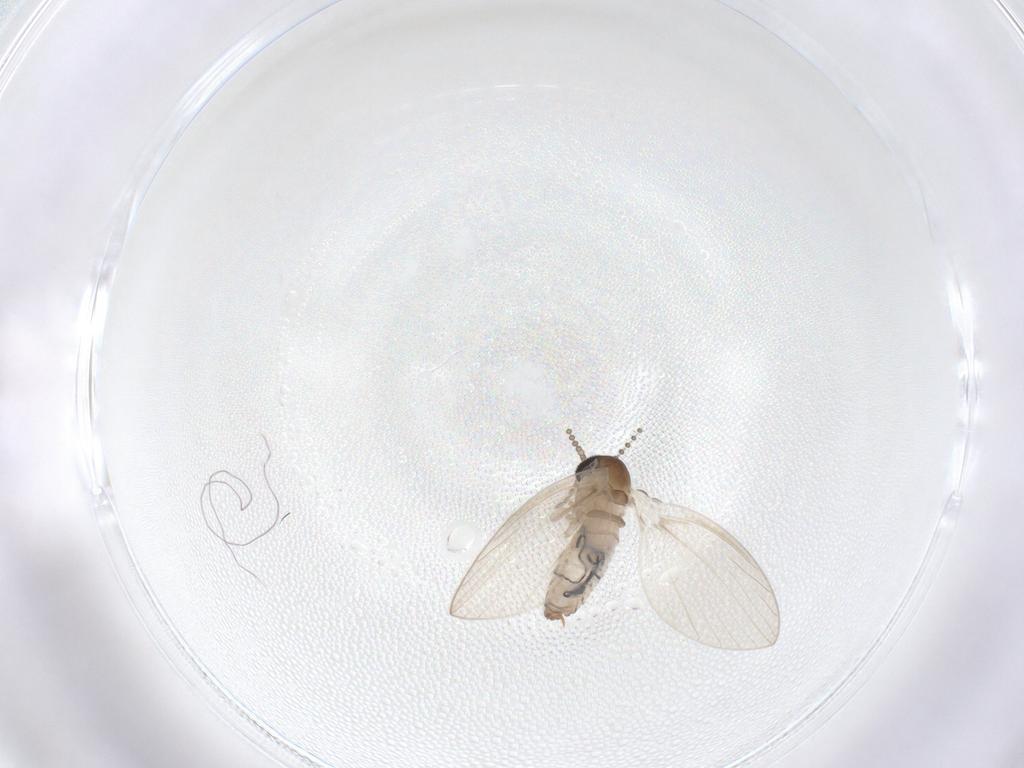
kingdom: Animalia
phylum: Arthropoda
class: Insecta
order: Diptera
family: Psychodidae
